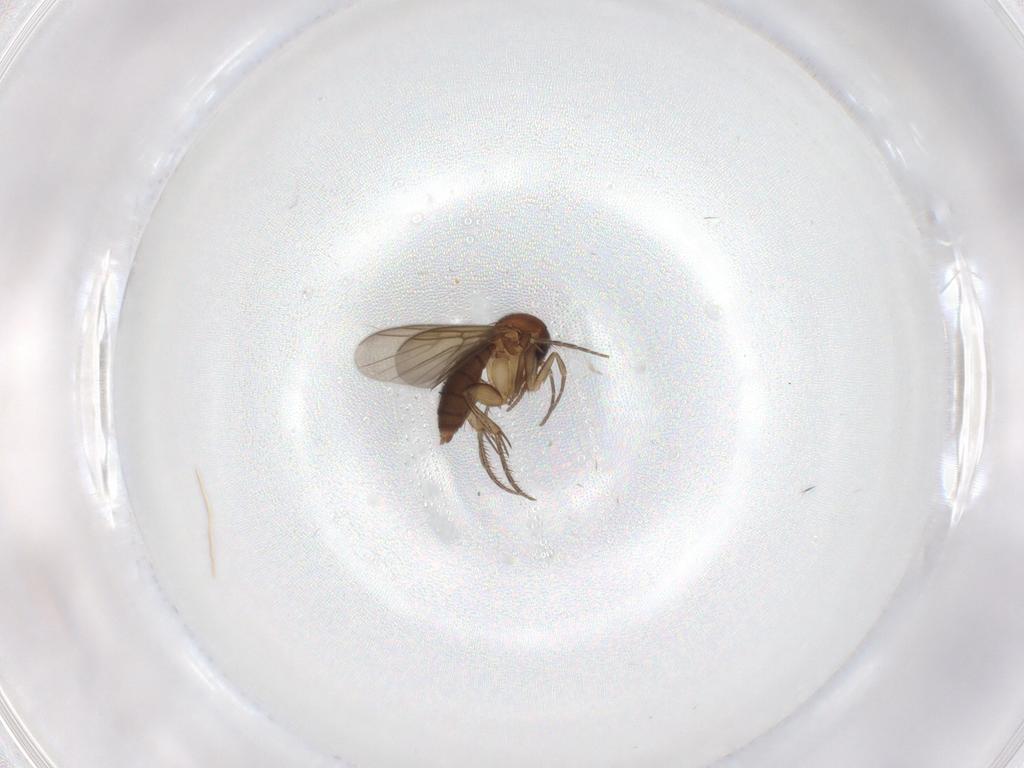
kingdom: Animalia
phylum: Arthropoda
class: Insecta
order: Diptera
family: Mycetophilidae
